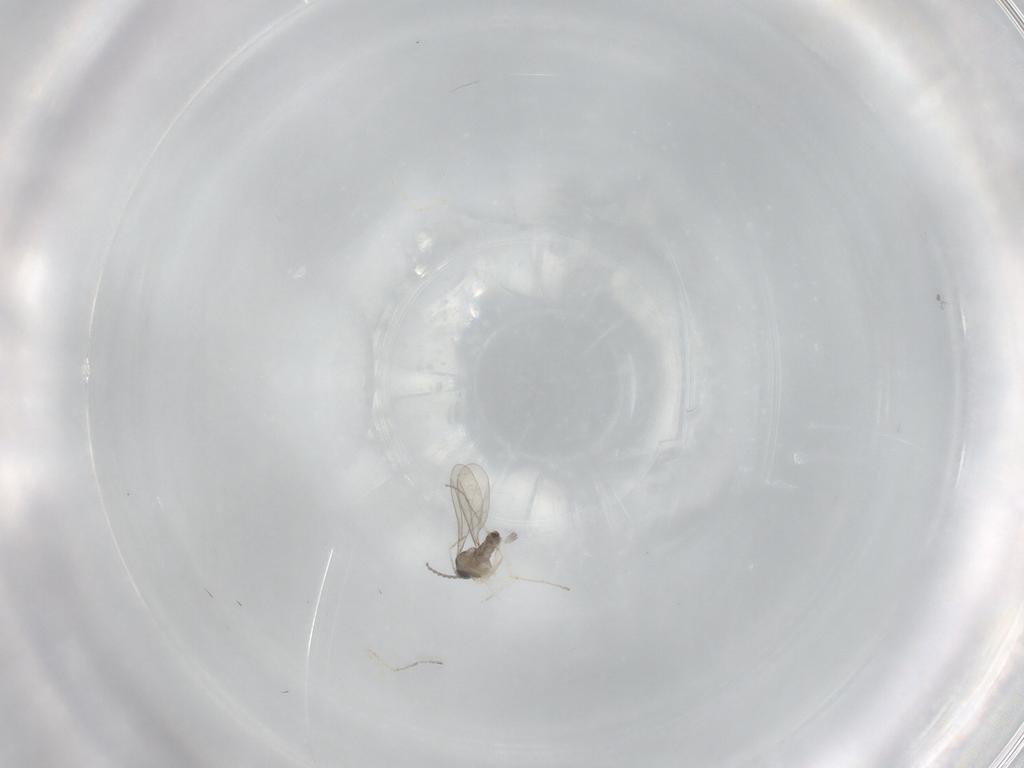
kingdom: Animalia
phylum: Arthropoda
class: Insecta
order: Diptera
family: Cecidomyiidae
